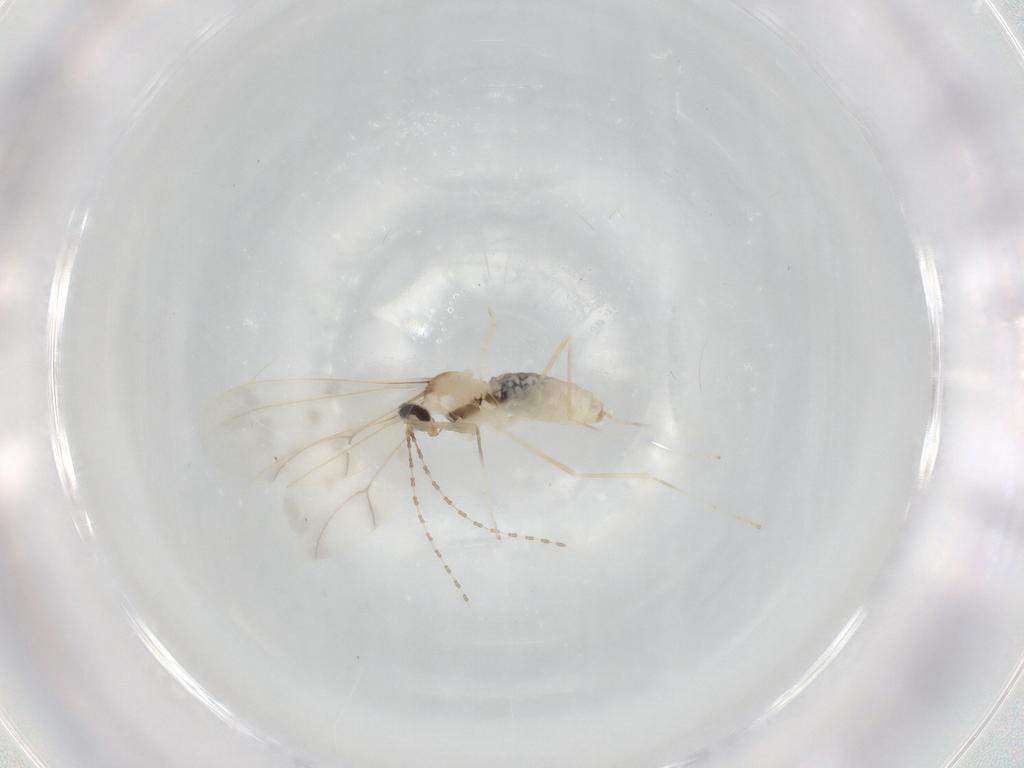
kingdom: Animalia
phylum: Arthropoda
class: Insecta
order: Diptera
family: Cecidomyiidae
